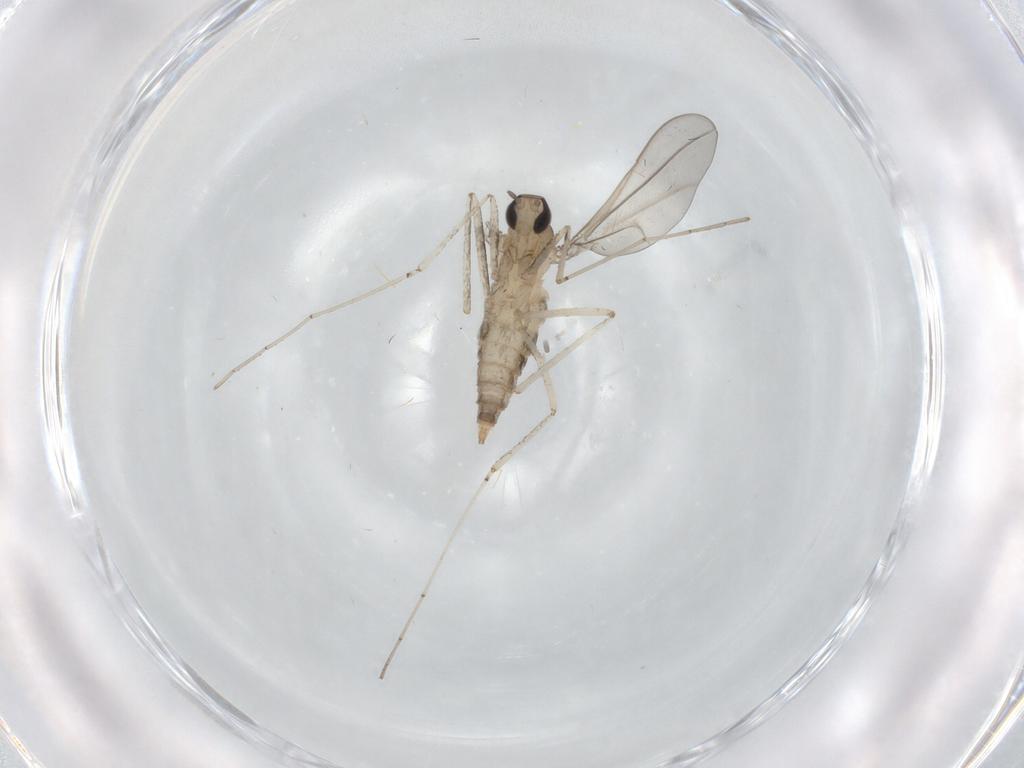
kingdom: Animalia
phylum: Arthropoda
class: Insecta
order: Diptera
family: Cecidomyiidae
